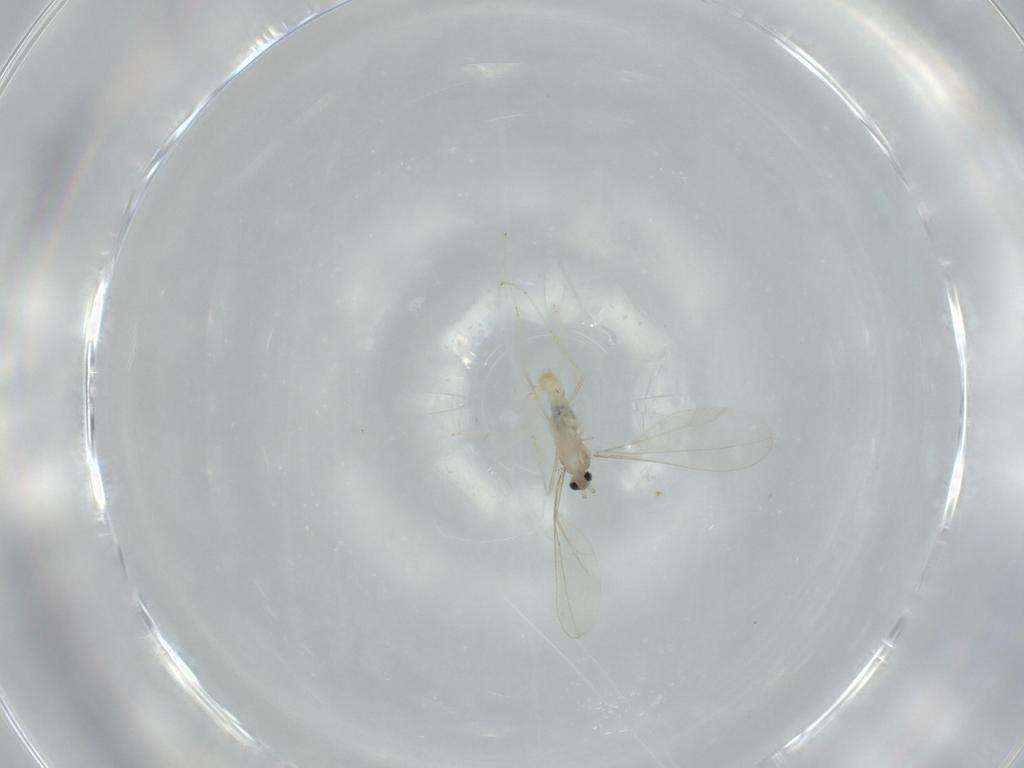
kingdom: Animalia
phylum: Arthropoda
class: Insecta
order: Diptera
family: Cecidomyiidae
